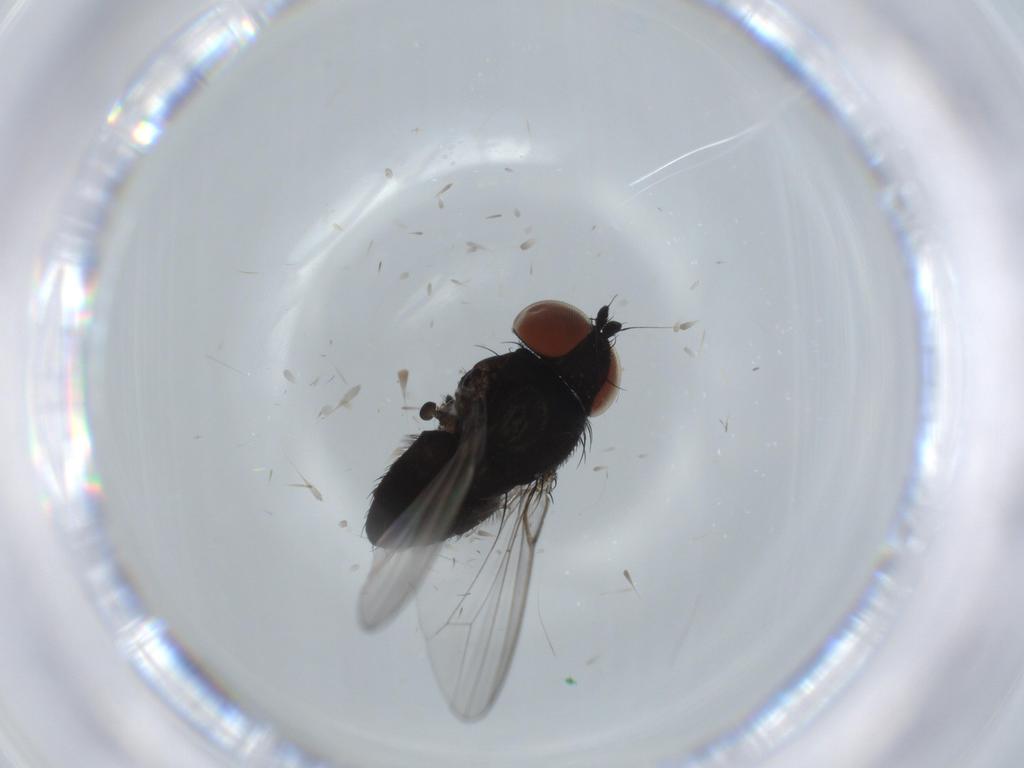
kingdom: Animalia
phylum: Arthropoda
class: Insecta
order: Diptera
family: Milichiidae
